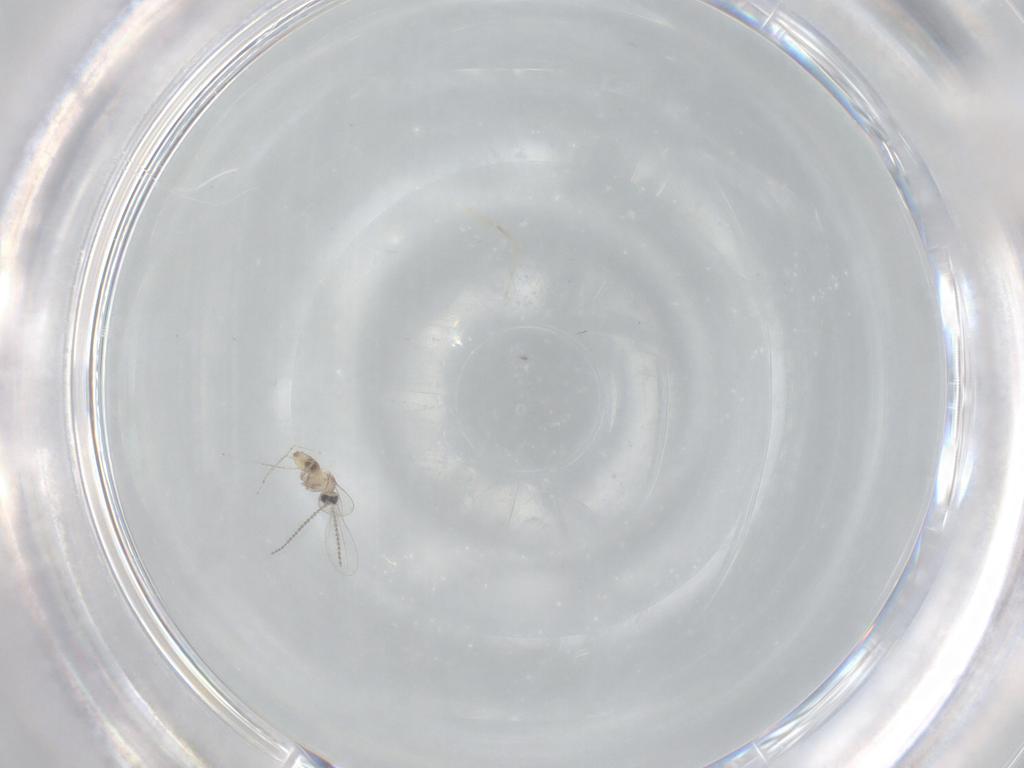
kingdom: Animalia
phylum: Arthropoda
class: Insecta
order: Diptera
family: Cecidomyiidae
